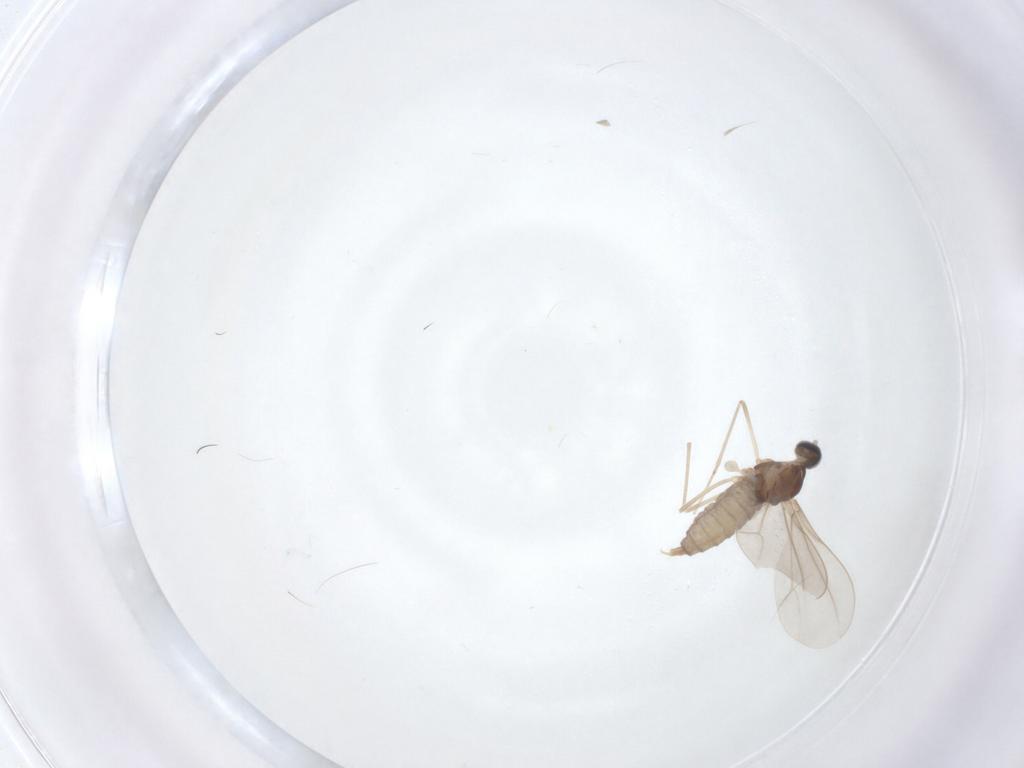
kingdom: Animalia
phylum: Arthropoda
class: Insecta
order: Diptera
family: Cecidomyiidae
